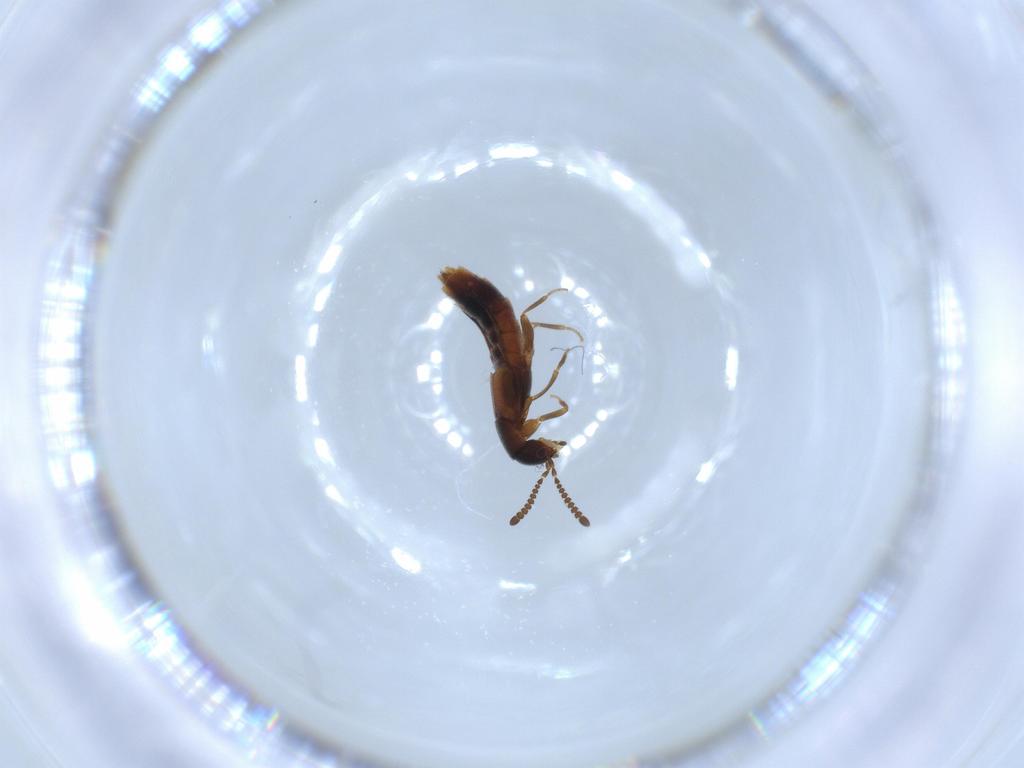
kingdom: Animalia
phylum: Arthropoda
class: Insecta
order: Coleoptera
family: Staphylinidae
